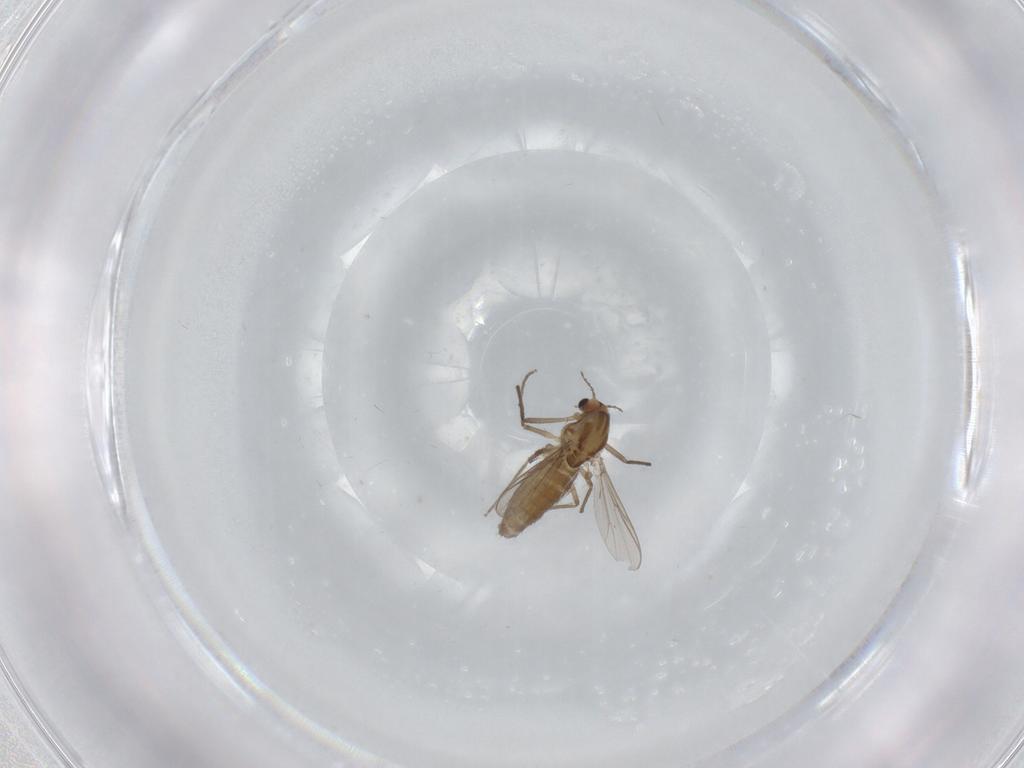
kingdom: Animalia
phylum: Arthropoda
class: Insecta
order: Diptera
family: Chironomidae
